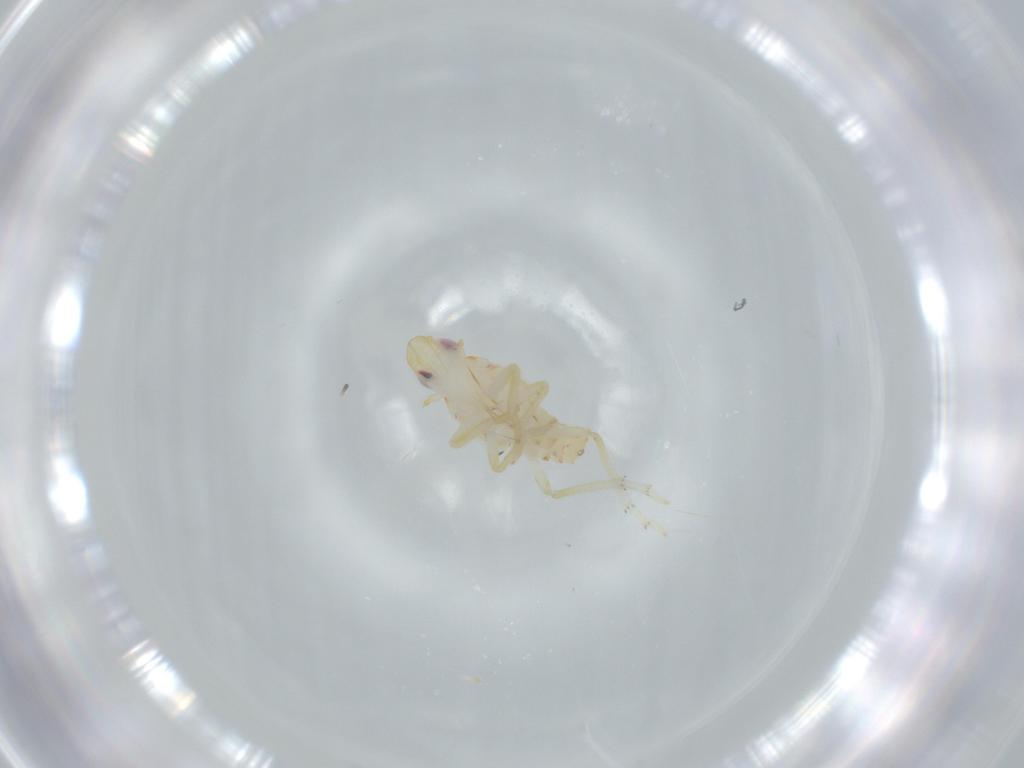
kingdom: Animalia
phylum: Arthropoda
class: Insecta
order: Hemiptera
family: Tropiduchidae
